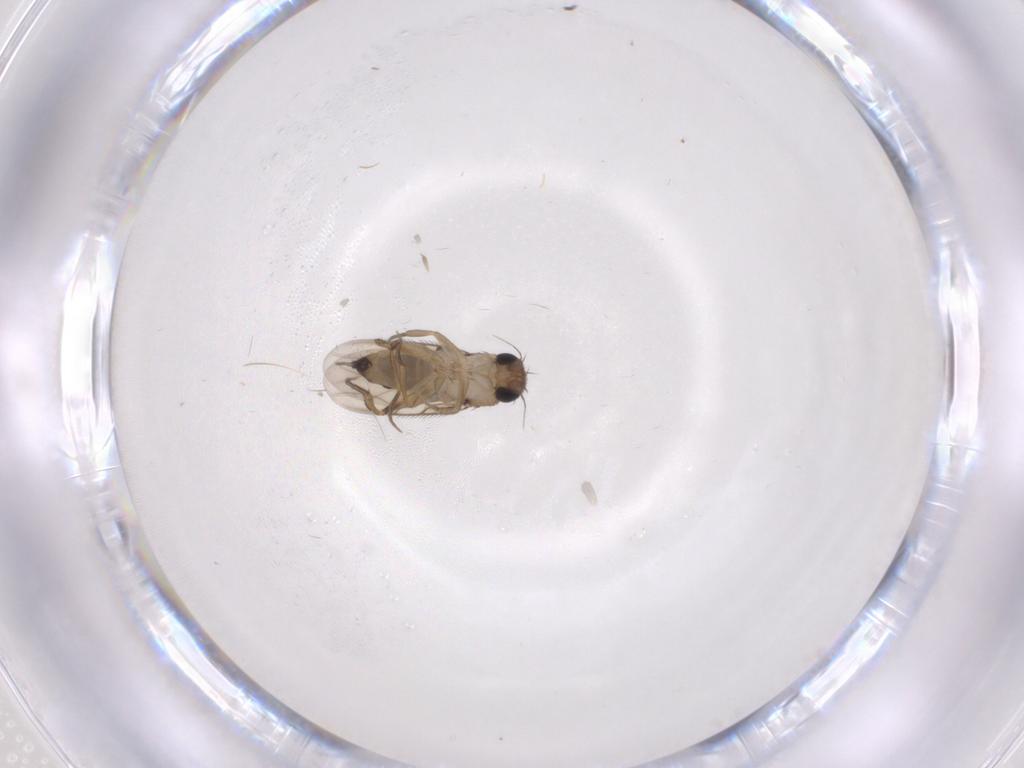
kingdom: Animalia
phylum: Arthropoda
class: Insecta
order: Diptera
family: Phoridae
